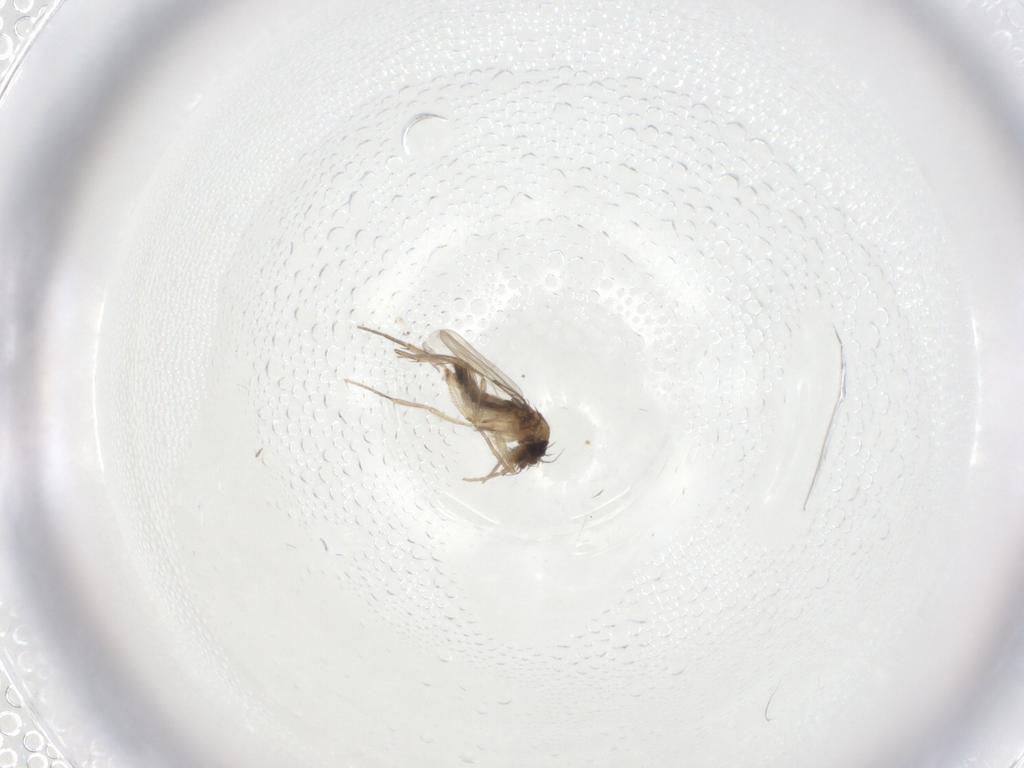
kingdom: Animalia
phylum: Arthropoda
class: Insecta
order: Diptera
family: Phoridae
